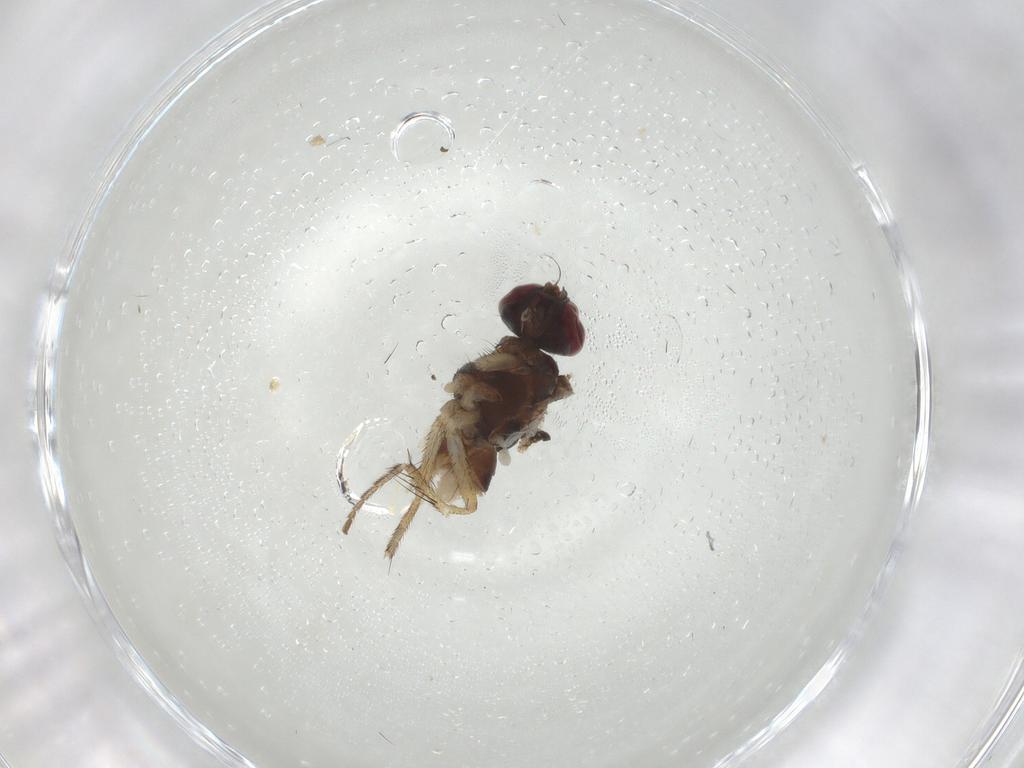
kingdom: Animalia
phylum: Arthropoda
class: Insecta
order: Diptera
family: Muscidae
